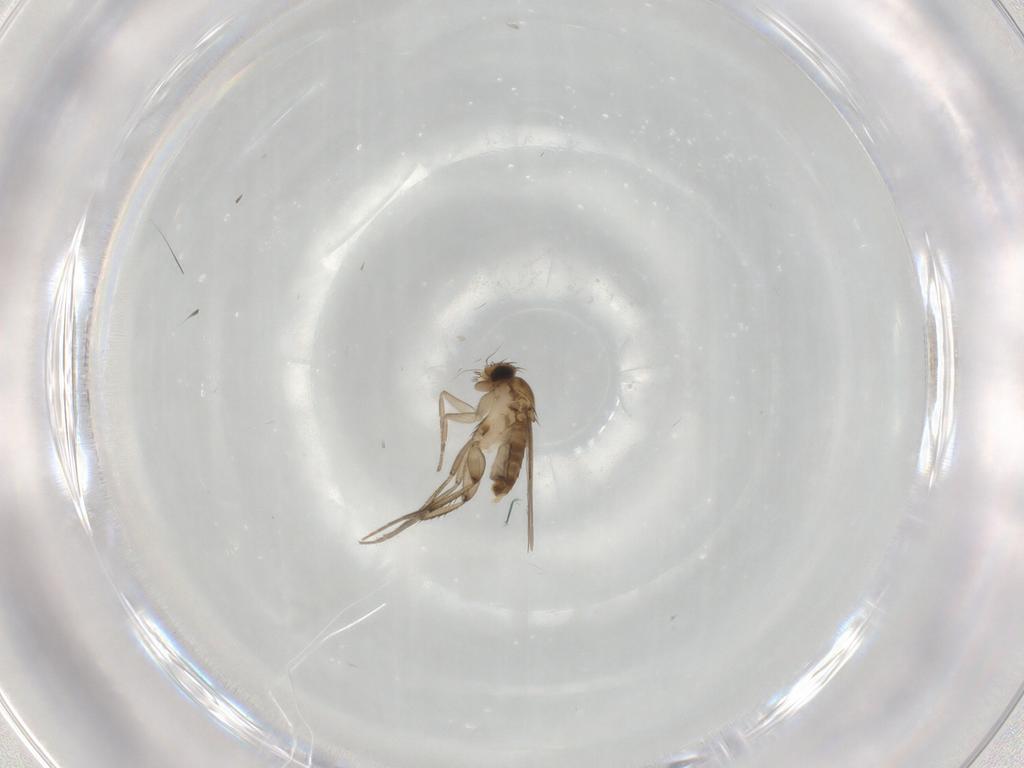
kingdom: Animalia
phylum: Arthropoda
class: Insecta
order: Diptera
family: Phoridae
